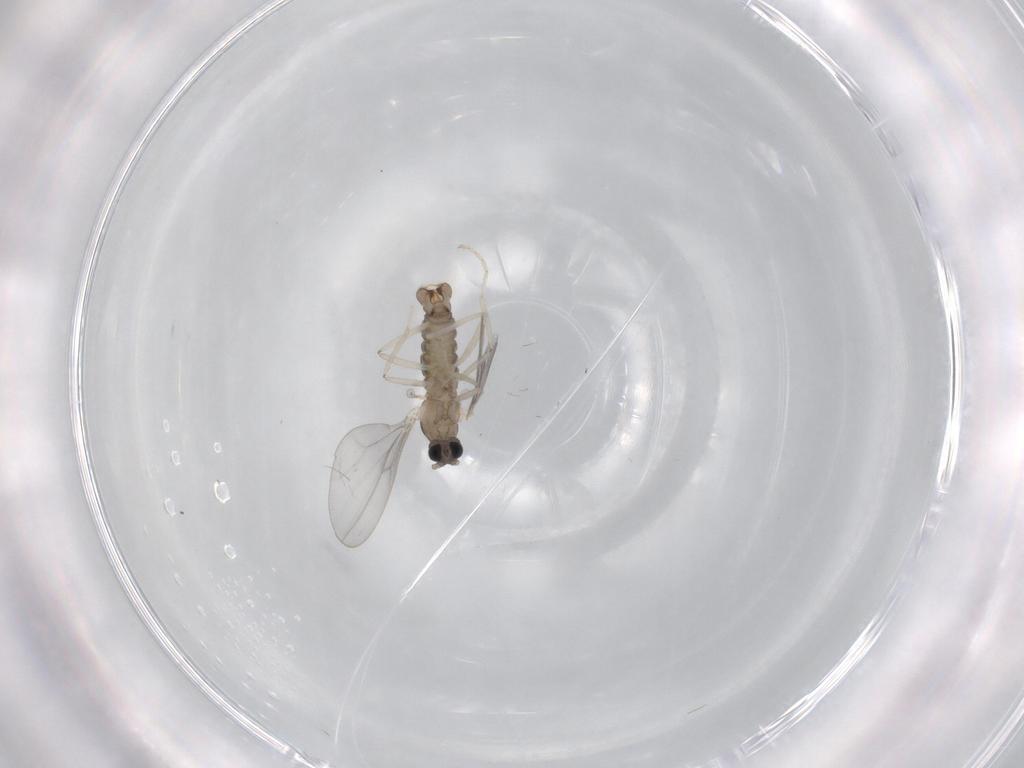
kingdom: Animalia
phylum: Arthropoda
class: Insecta
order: Diptera
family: Cecidomyiidae
